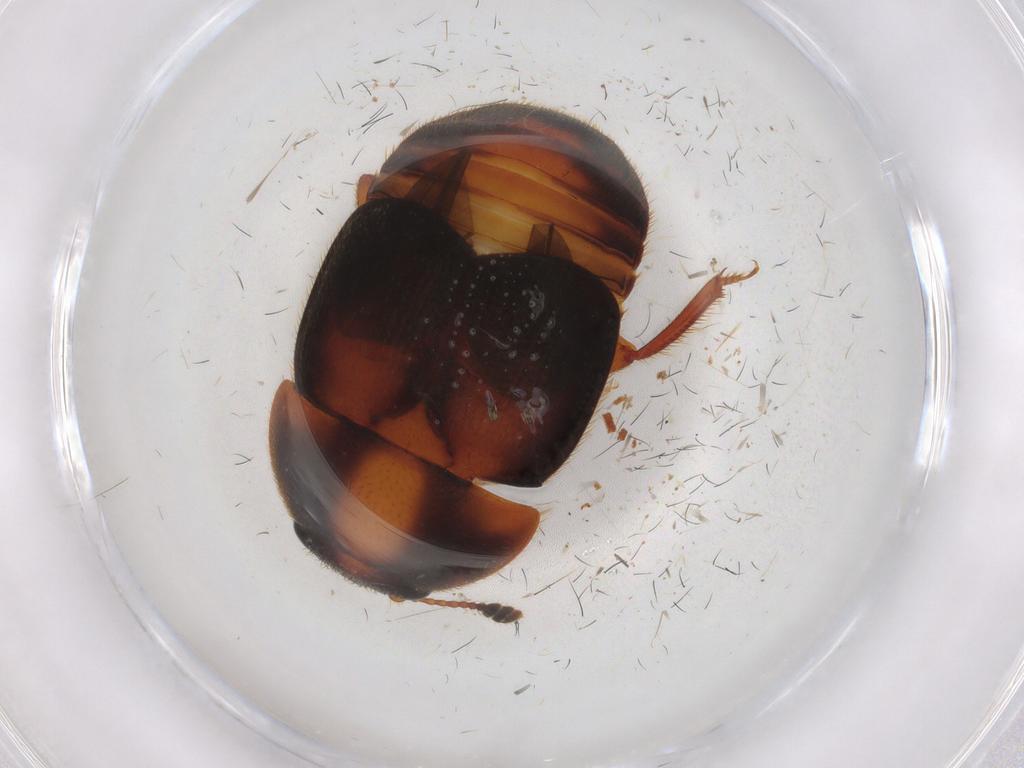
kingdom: Animalia
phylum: Arthropoda
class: Insecta
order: Coleoptera
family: Nitidulidae
